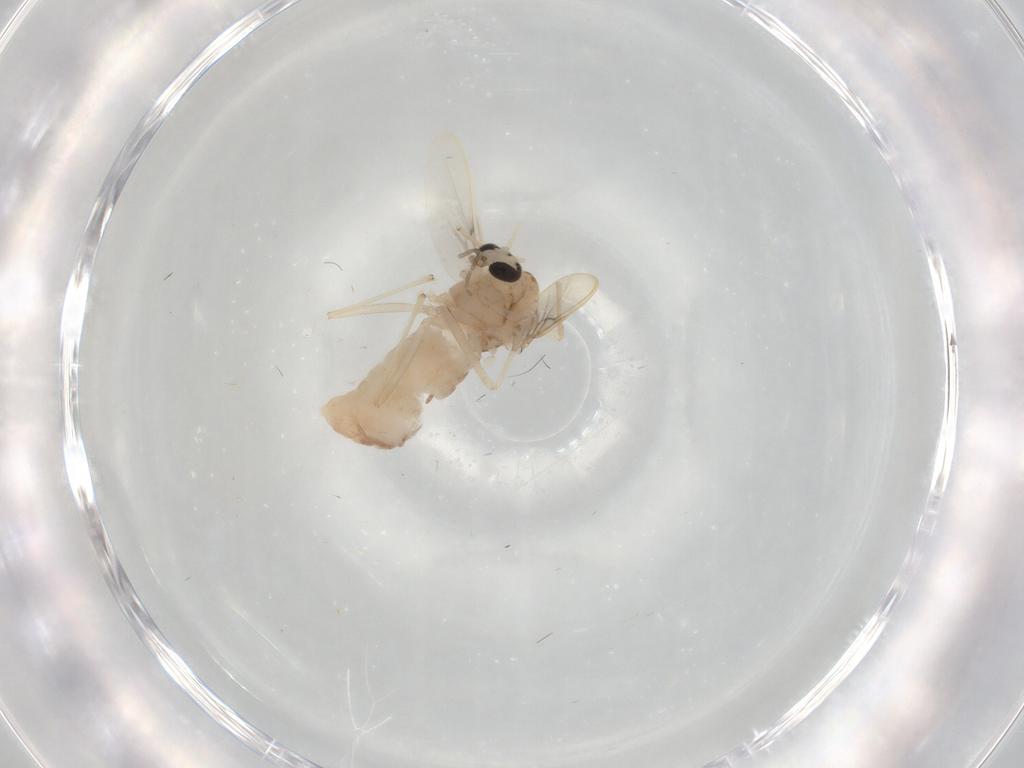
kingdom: Animalia
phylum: Arthropoda
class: Insecta
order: Diptera
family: Chironomidae
